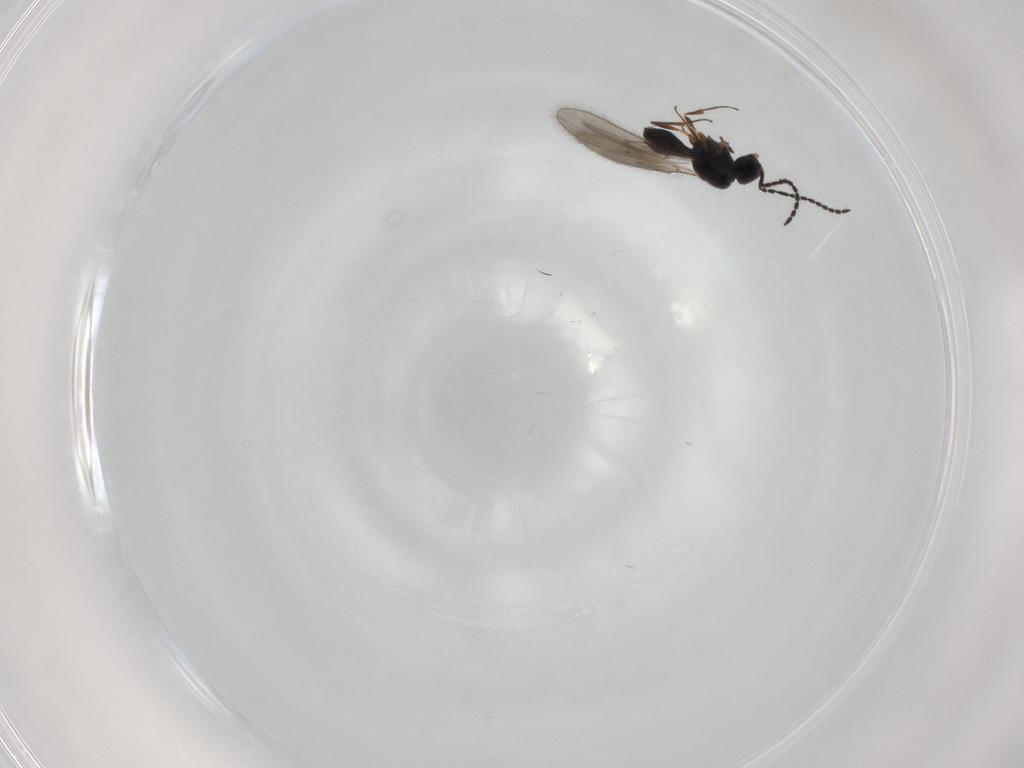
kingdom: Animalia
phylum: Arthropoda
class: Insecta
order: Hymenoptera
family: Scelionidae
